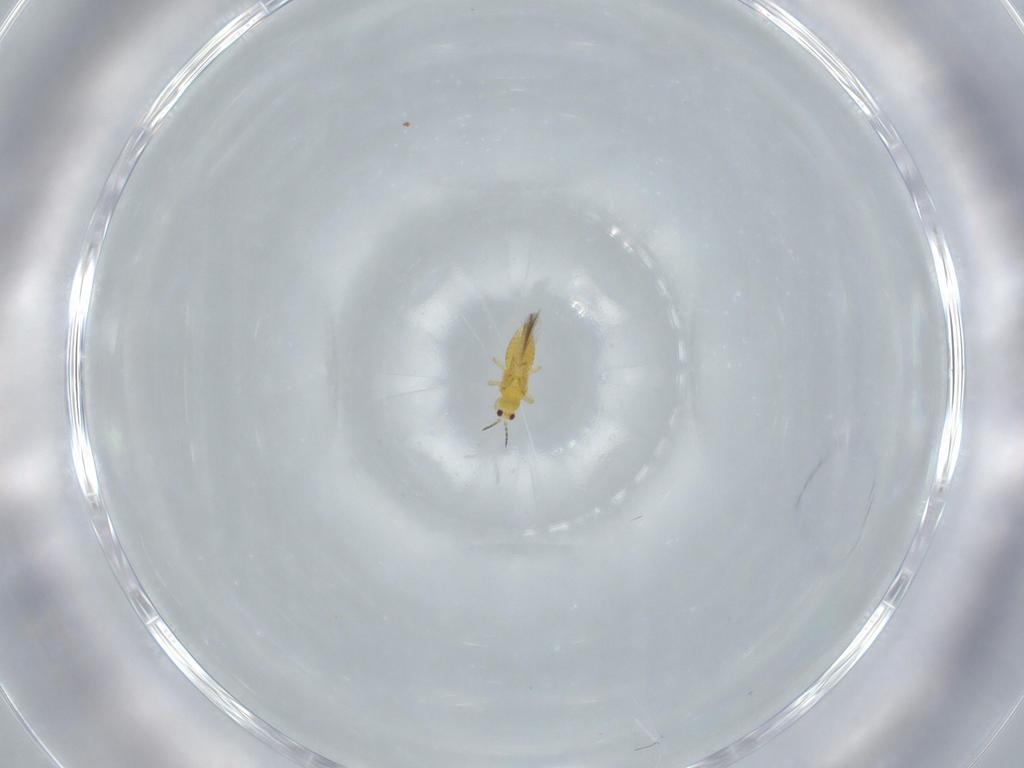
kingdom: Animalia
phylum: Arthropoda
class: Insecta
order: Thysanoptera
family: Thripidae
